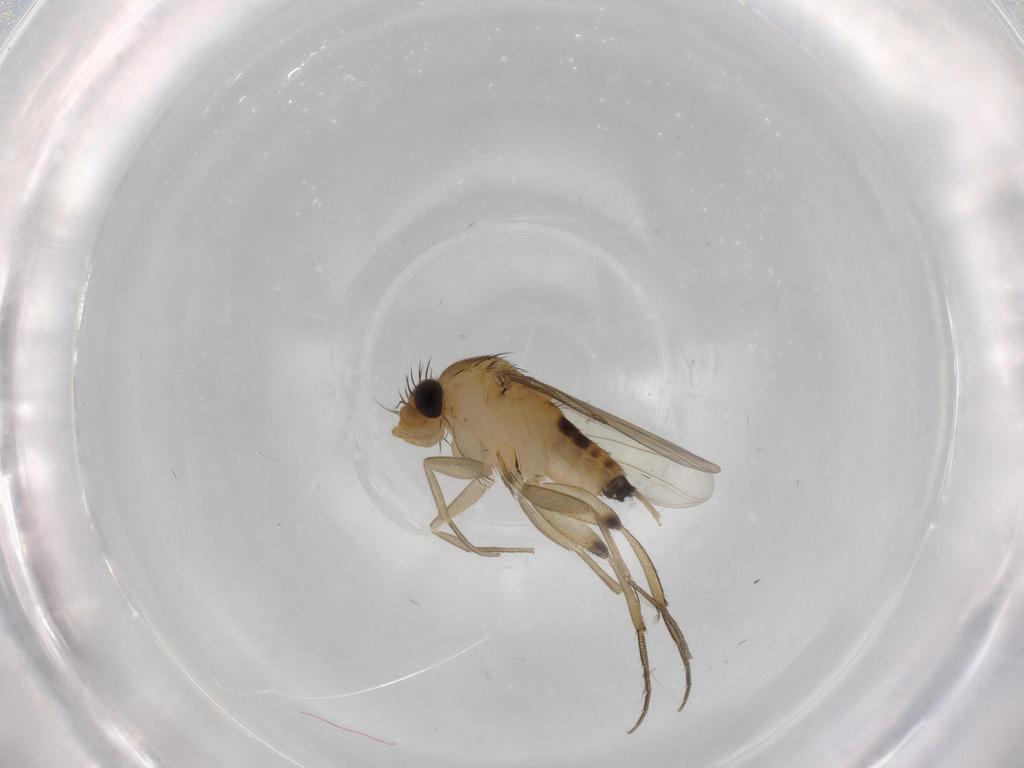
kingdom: Animalia
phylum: Arthropoda
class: Insecta
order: Diptera
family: Phoridae
